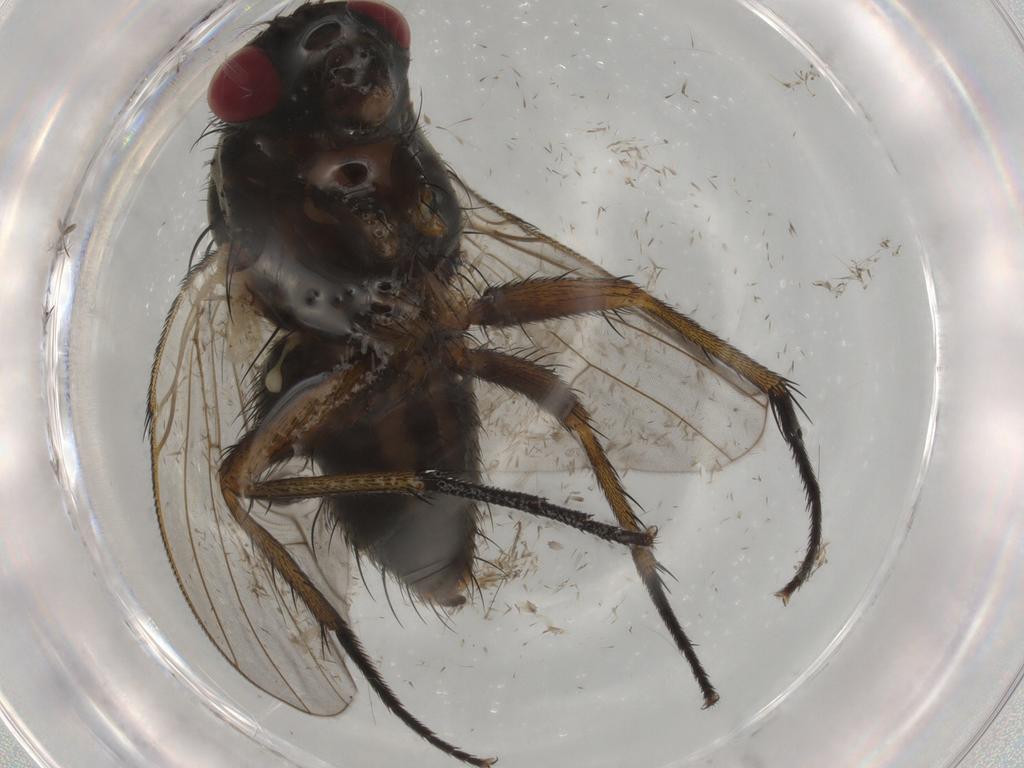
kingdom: Animalia
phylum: Arthropoda
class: Insecta
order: Diptera
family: Muscidae
